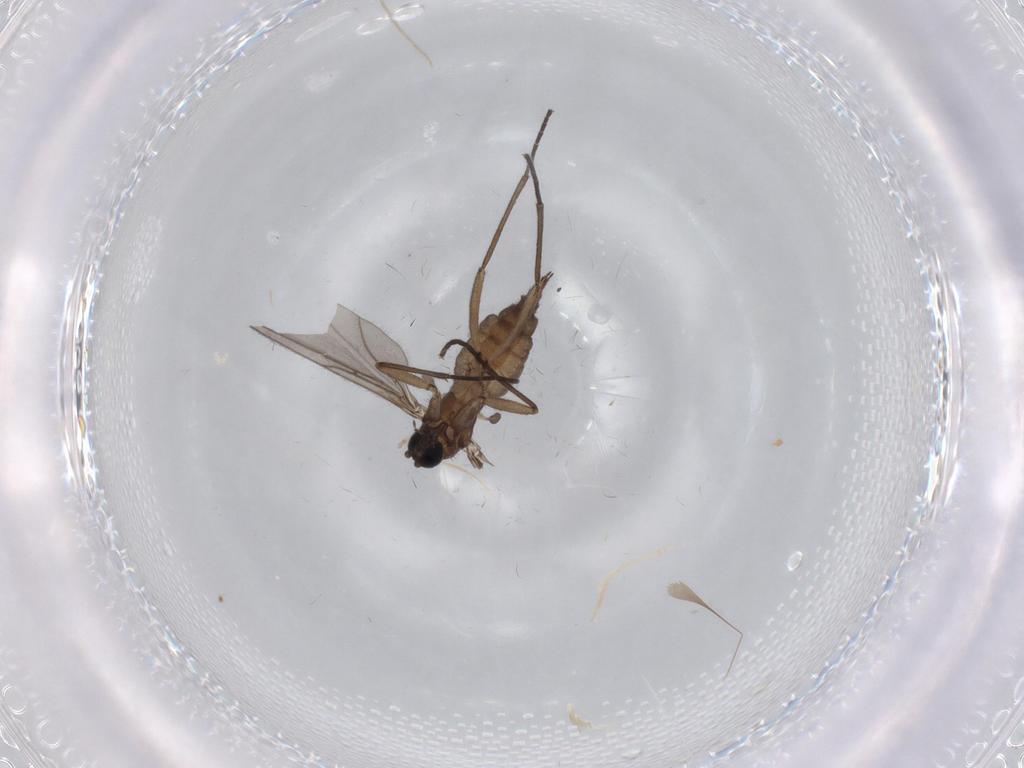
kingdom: Animalia
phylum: Arthropoda
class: Insecta
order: Diptera
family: Sciaridae
